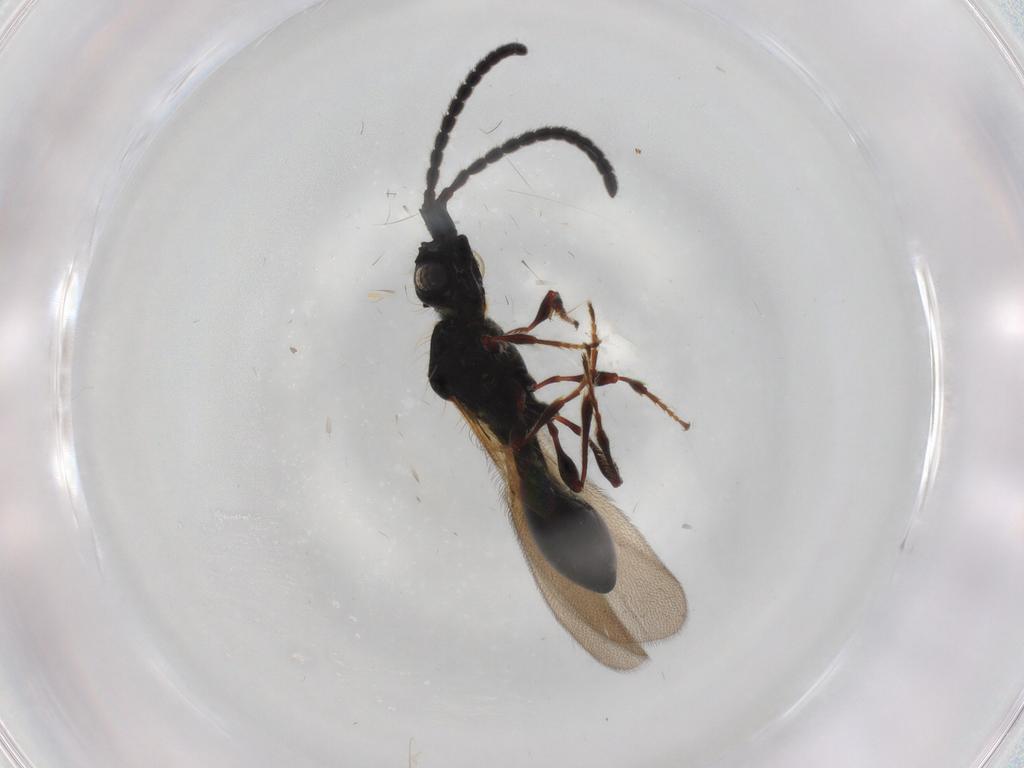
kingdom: Animalia
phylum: Arthropoda
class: Insecta
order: Hymenoptera
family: Diapriidae
